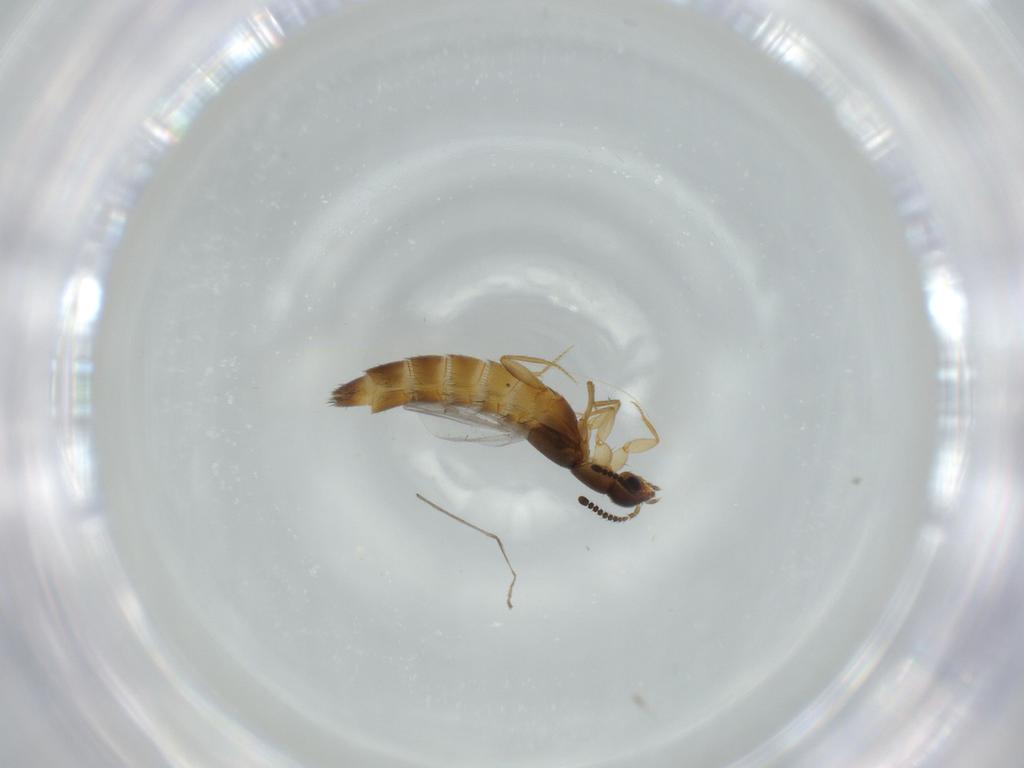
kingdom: Animalia
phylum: Arthropoda
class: Insecta
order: Coleoptera
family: Staphylinidae
